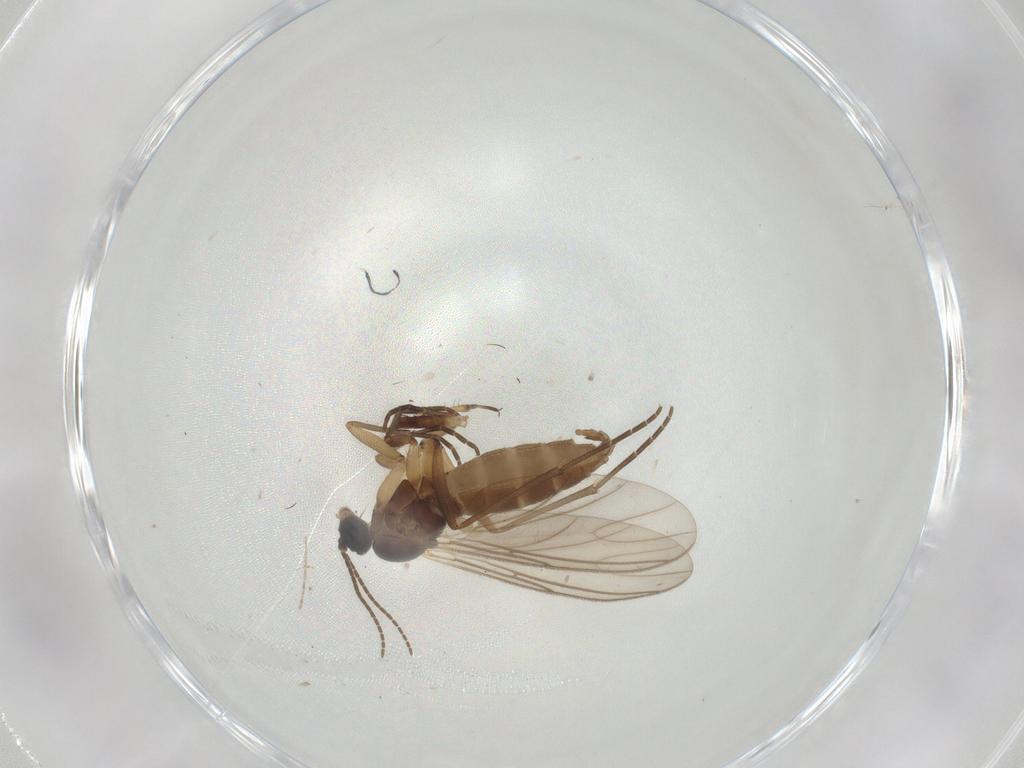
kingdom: Animalia
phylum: Arthropoda
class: Insecta
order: Diptera
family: Sciaridae
